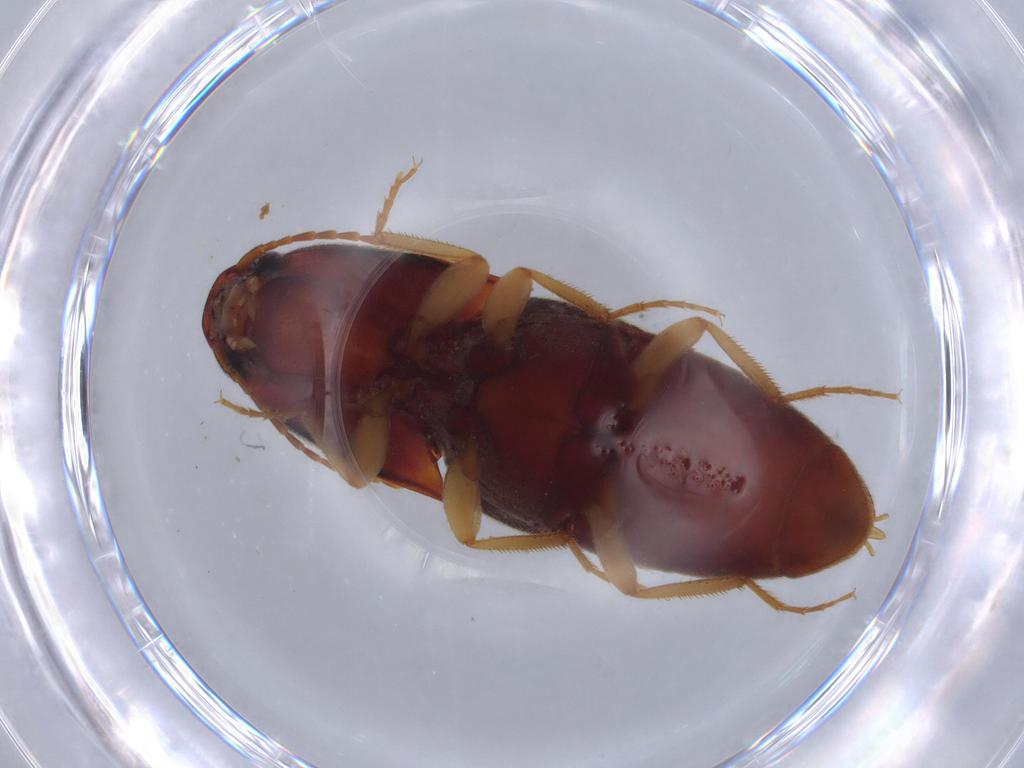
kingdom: Animalia
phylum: Arthropoda
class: Insecta
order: Coleoptera
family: Elateridae
